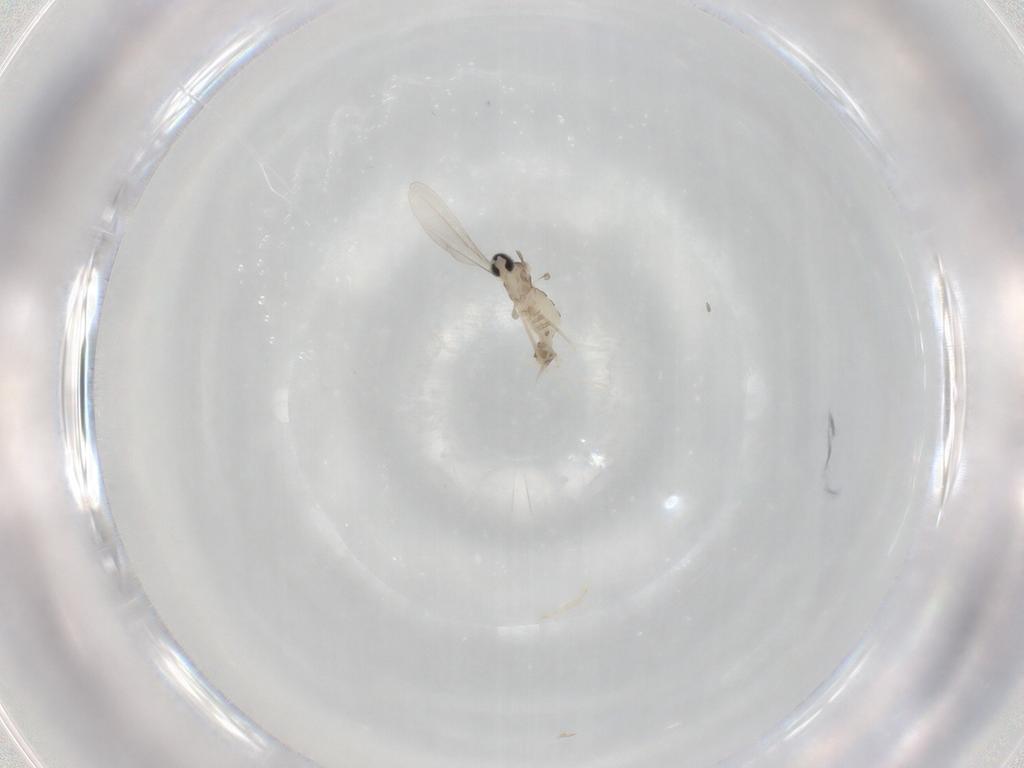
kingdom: Animalia
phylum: Arthropoda
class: Insecta
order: Diptera
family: Cecidomyiidae
